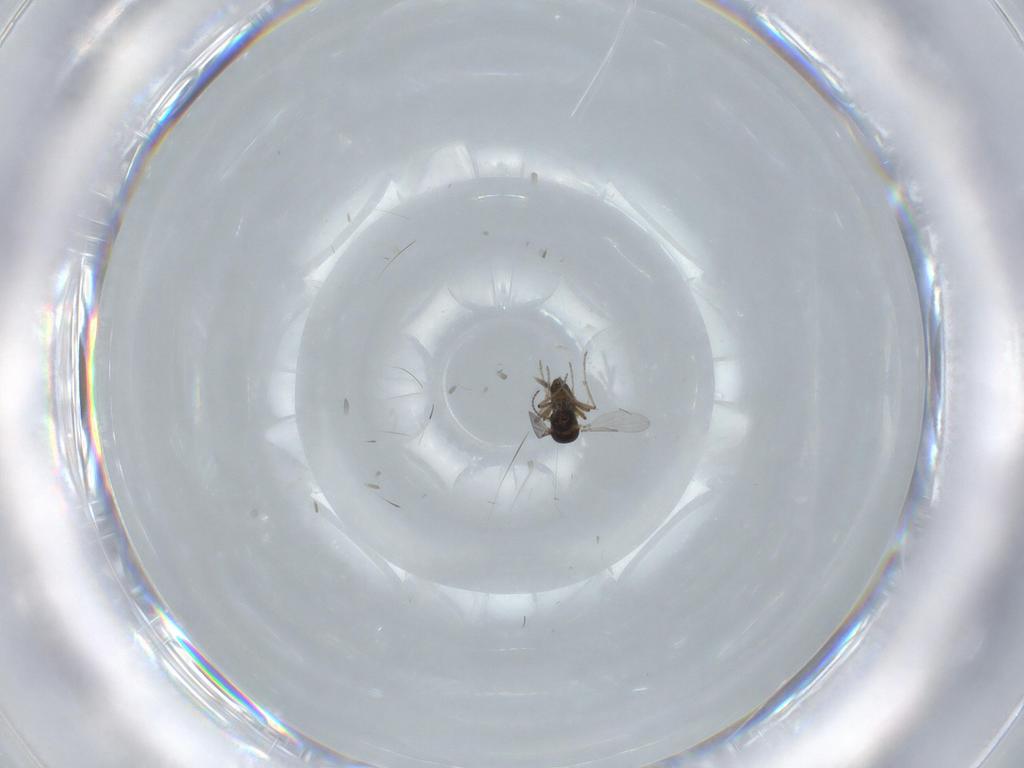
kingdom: Animalia
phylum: Arthropoda
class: Insecta
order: Diptera
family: Ceratopogonidae
